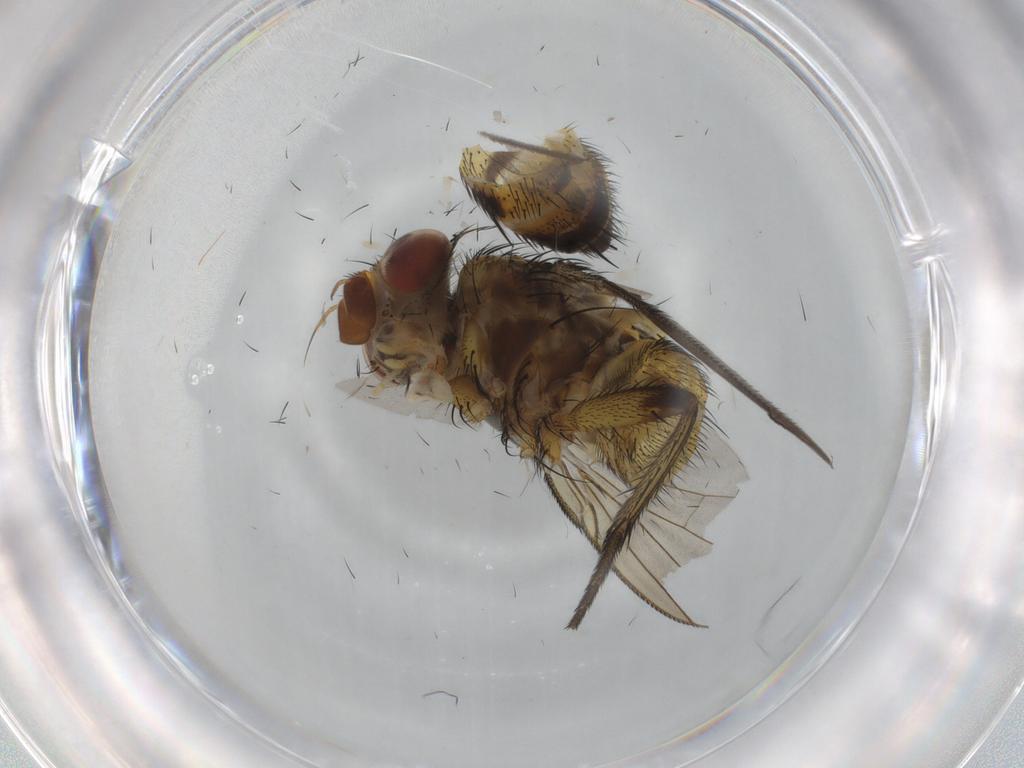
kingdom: Animalia
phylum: Arthropoda
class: Insecta
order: Diptera
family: Tachinidae
